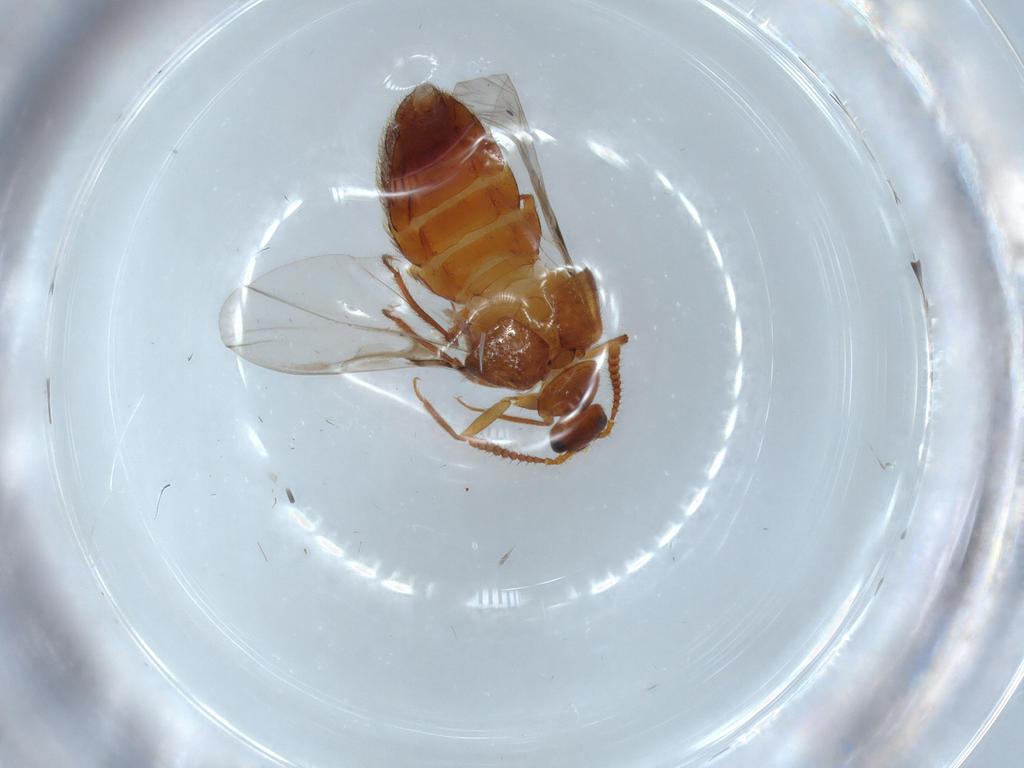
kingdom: Animalia
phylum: Arthropoda
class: Insecta
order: Coleoptera
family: Staphylinidae
